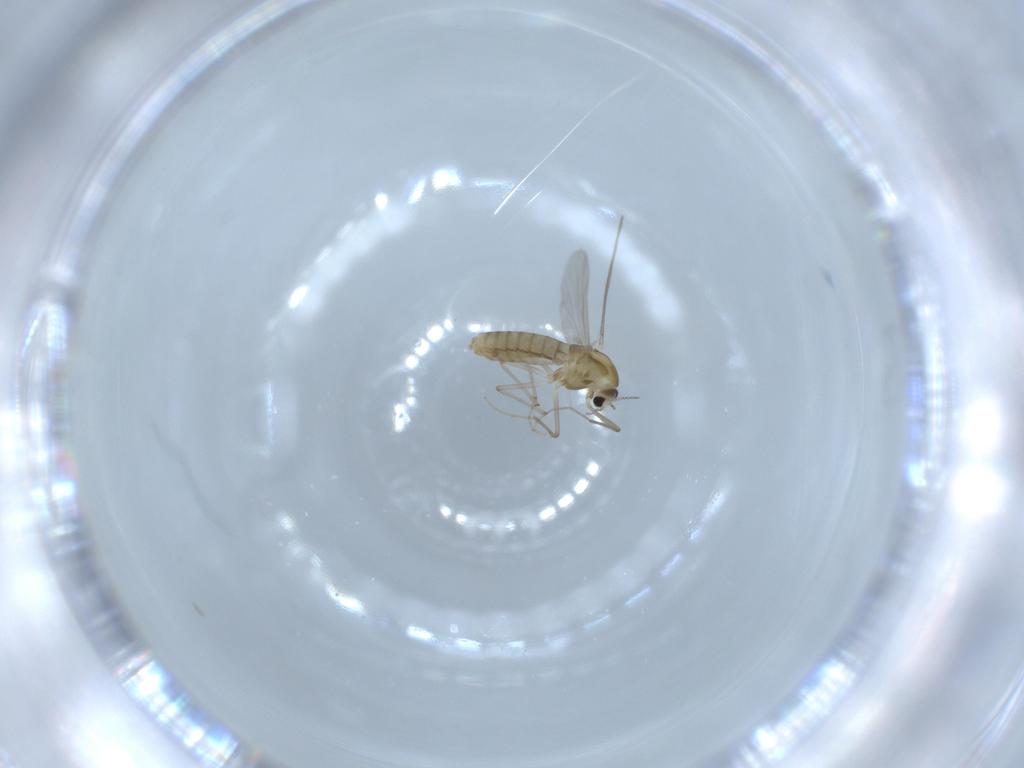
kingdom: Animalia
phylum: Arthropoda
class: Insecta
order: Diptera
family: Chironomidae
